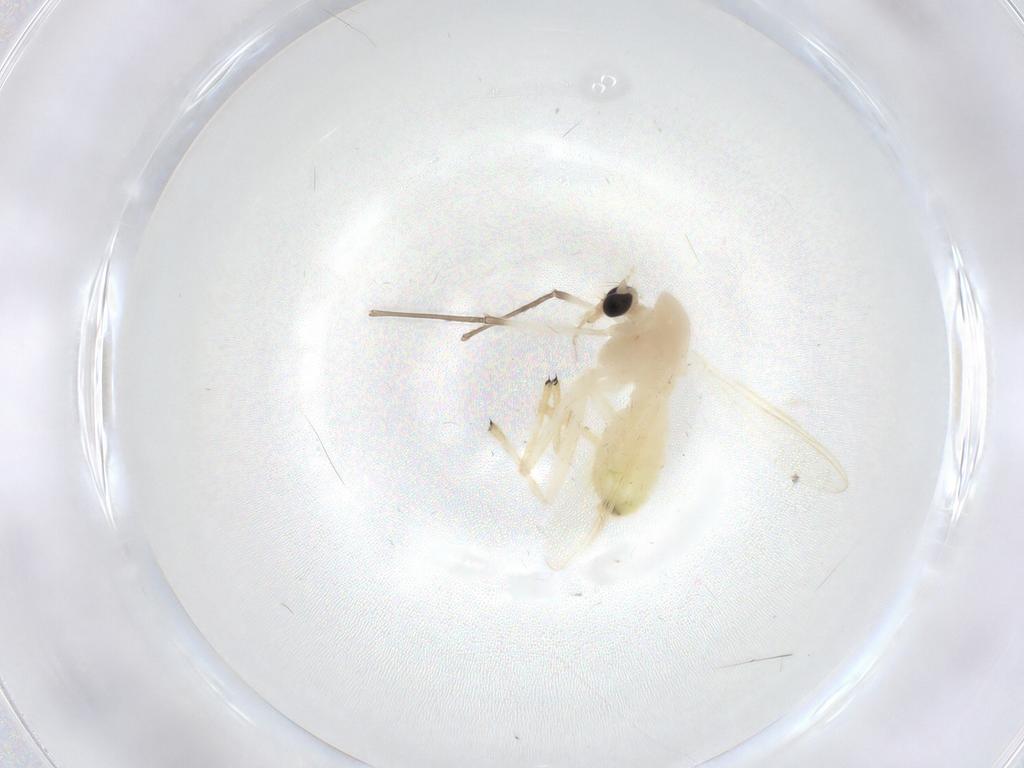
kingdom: Animalia
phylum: Arthropoda
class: Insecta
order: Diptera
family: Chironomidae
